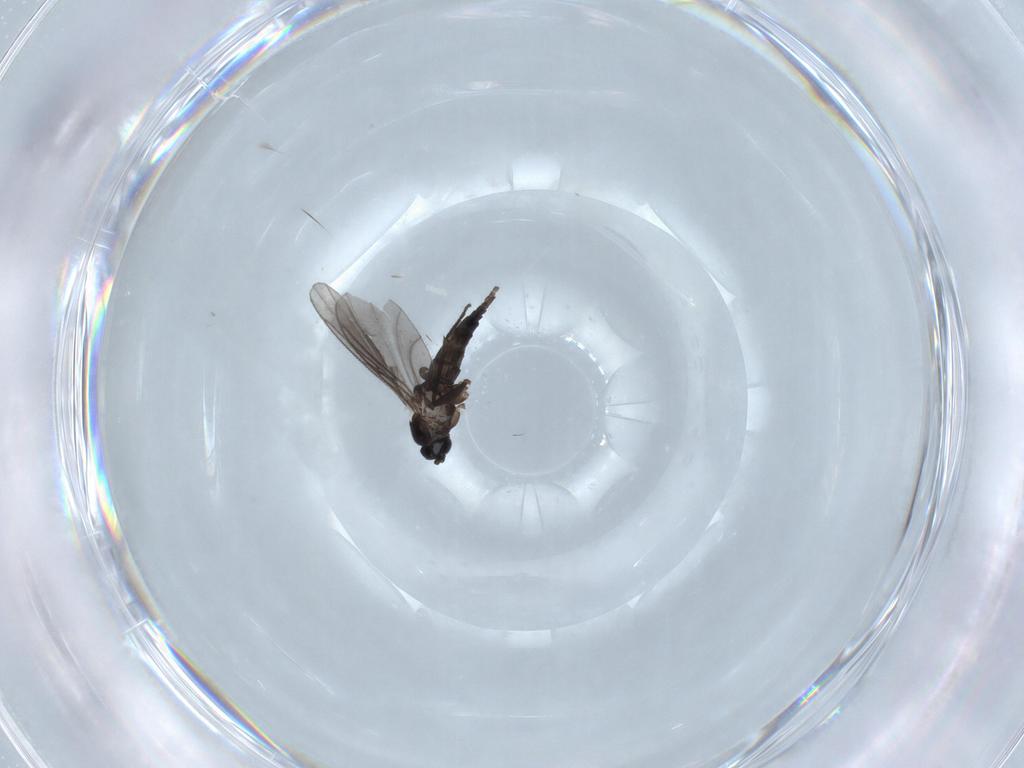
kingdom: Animalia
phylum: Arthropoda
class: Insecta
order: Diptera
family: Sciaridae
